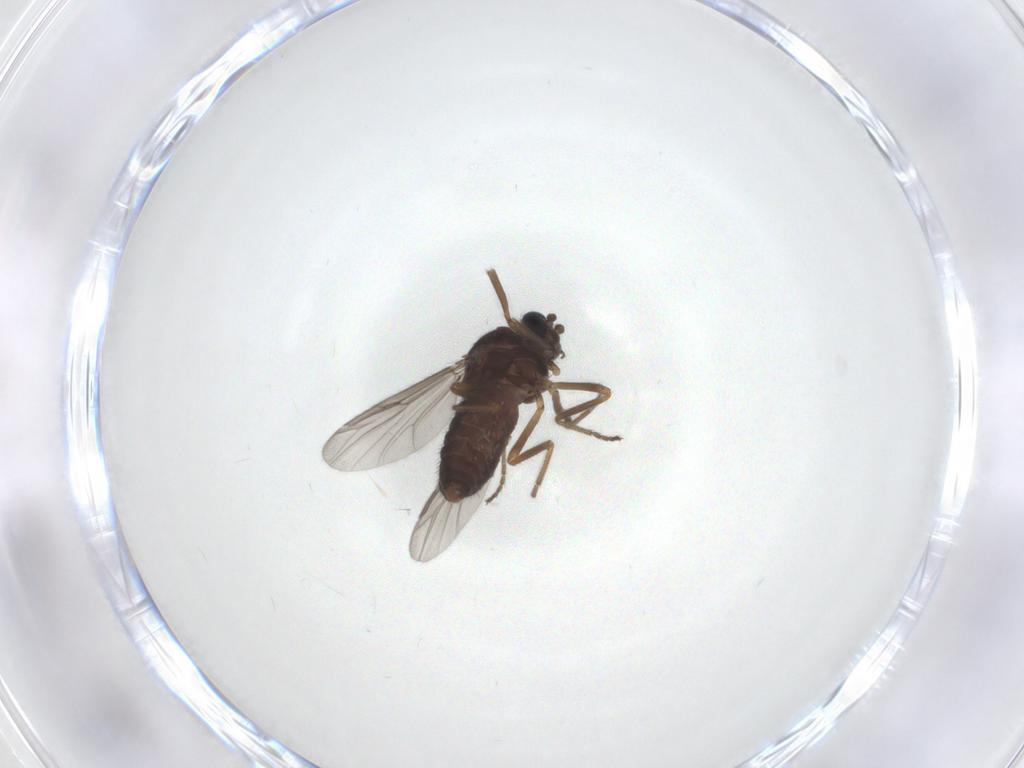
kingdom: Animalia
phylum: Arthropoda
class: Insecta
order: Diptera
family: Ceratopogonidae
